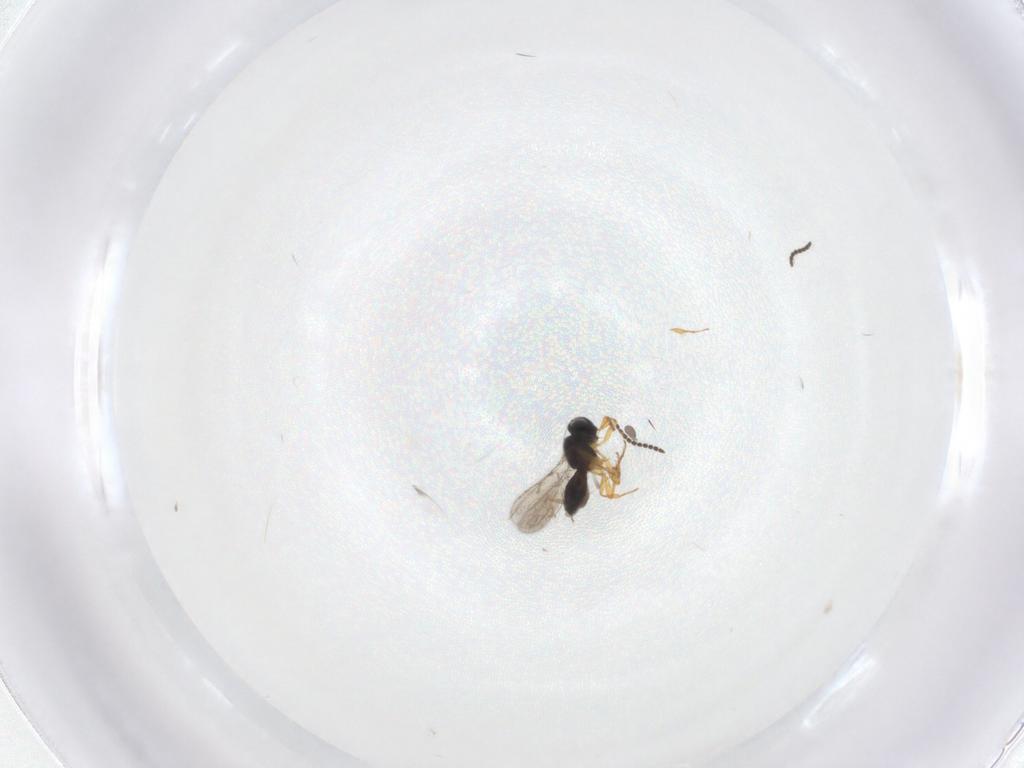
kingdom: Animalia
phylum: Arthropoda
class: Insecta
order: Hymenoptera
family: Scelionidae
